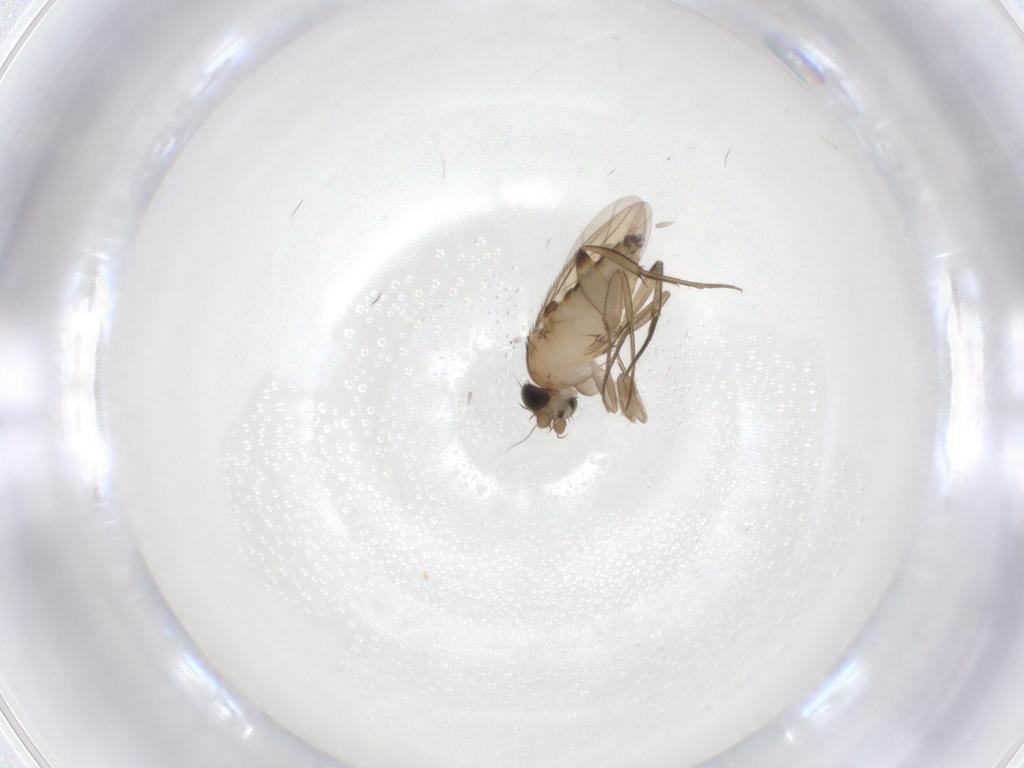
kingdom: Animalia
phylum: Arthropoda
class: Insecta
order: Diptera
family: Phoridae
